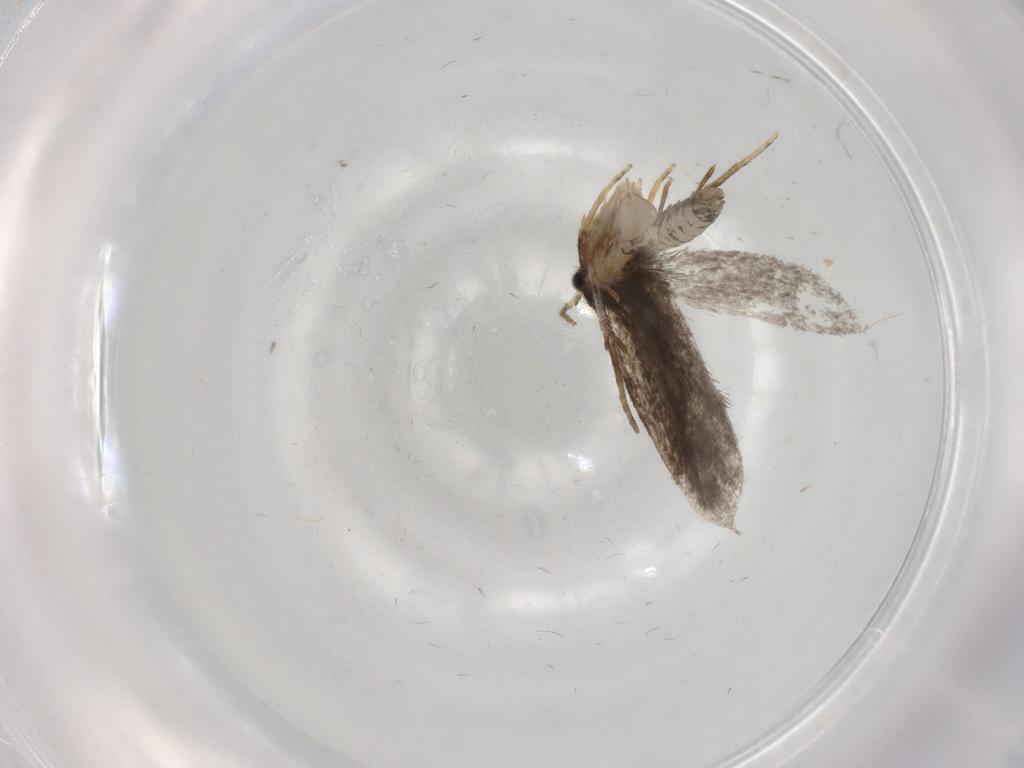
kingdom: Animalia
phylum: Arthropoda
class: Insecta
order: Lepidoptera
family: Psychidae
